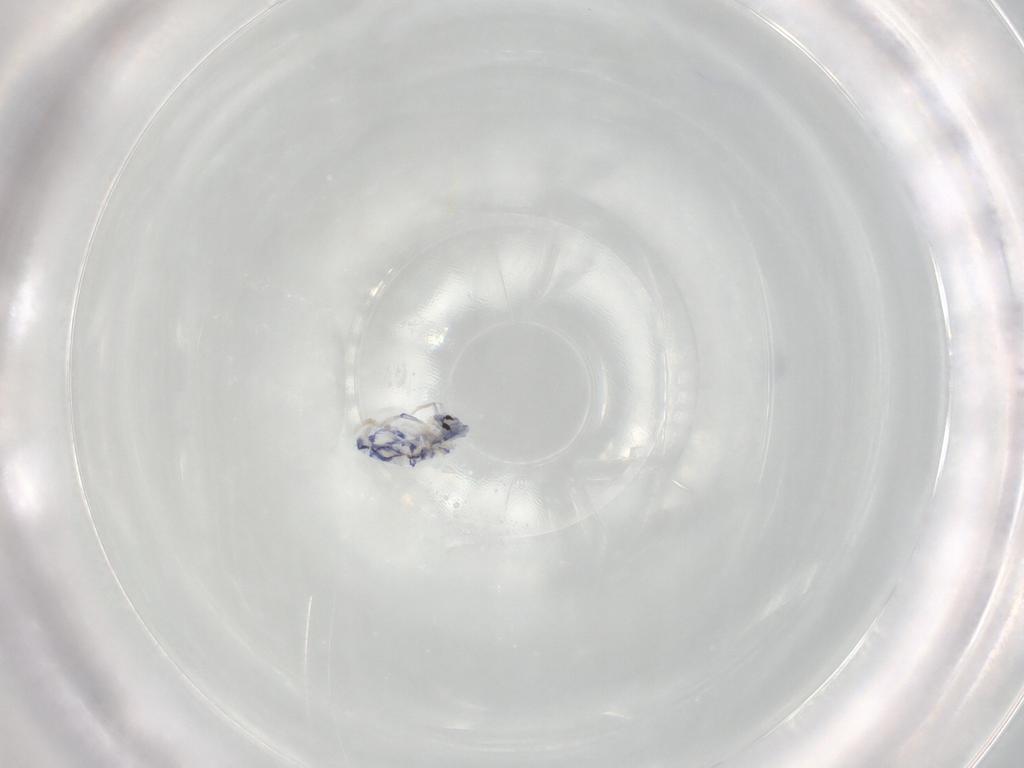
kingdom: Animalia
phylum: Arthropoda
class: Collembola
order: Entomobryomorpha
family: Entomobryidae
